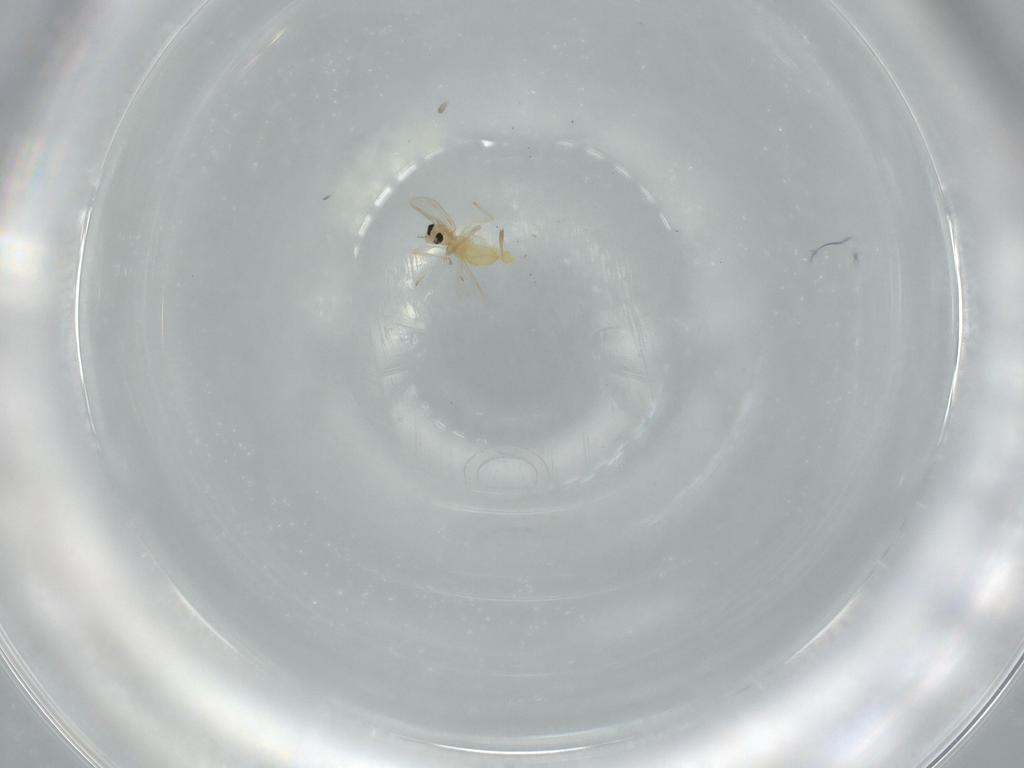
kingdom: Animalia
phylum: Arthropoda
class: Insecta
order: Diptera
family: Chironomidae
